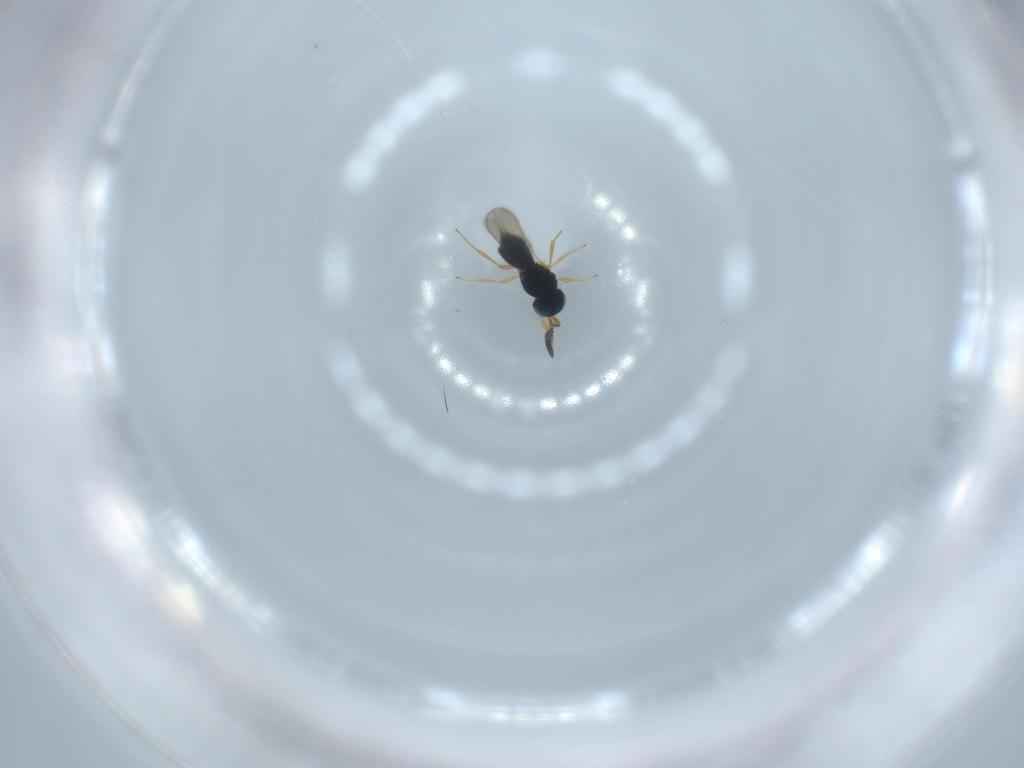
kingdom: Animalia
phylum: Arthropoda
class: Insecta
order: Hymenoptera
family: Scelionidae
